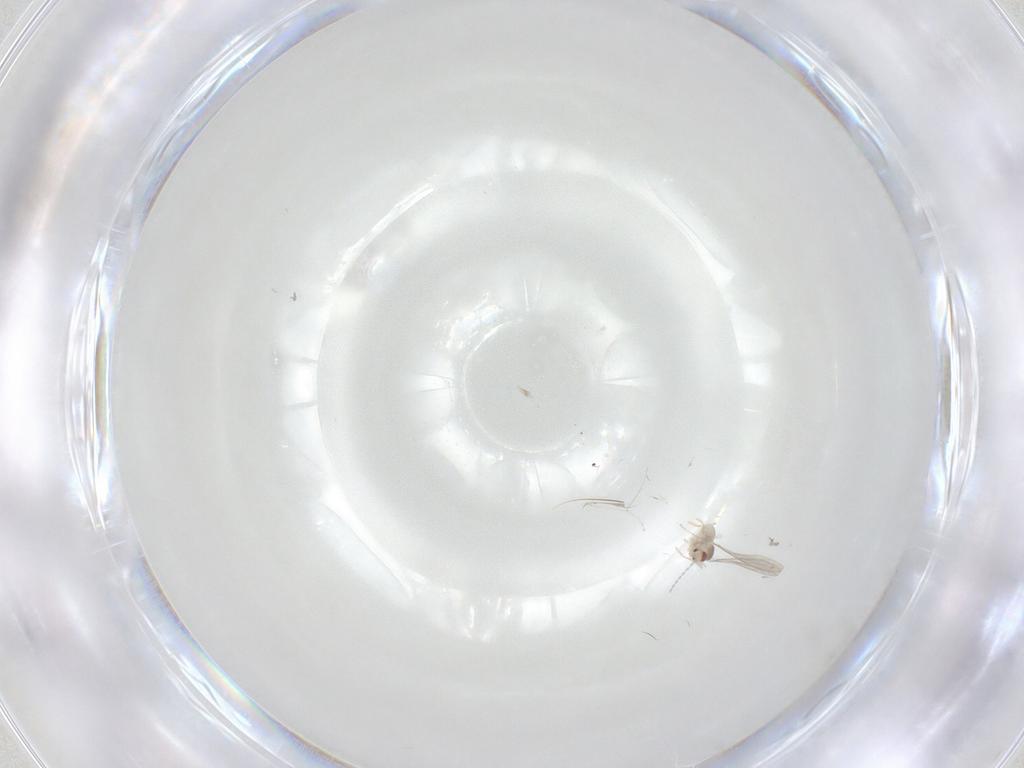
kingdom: Animalia
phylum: Arthropoda
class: Insecta
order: Diptera
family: Cecidomyiidae
